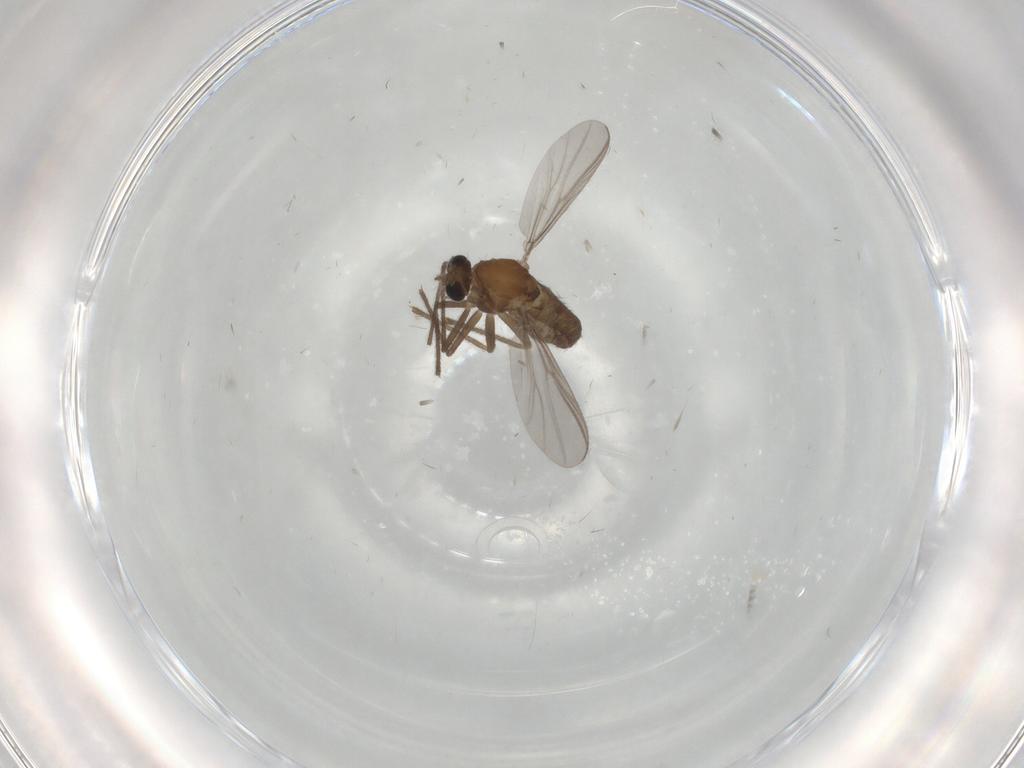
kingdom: Animalia
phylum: Arthropoda
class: Insecta
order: Diptera
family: Chironomidae
